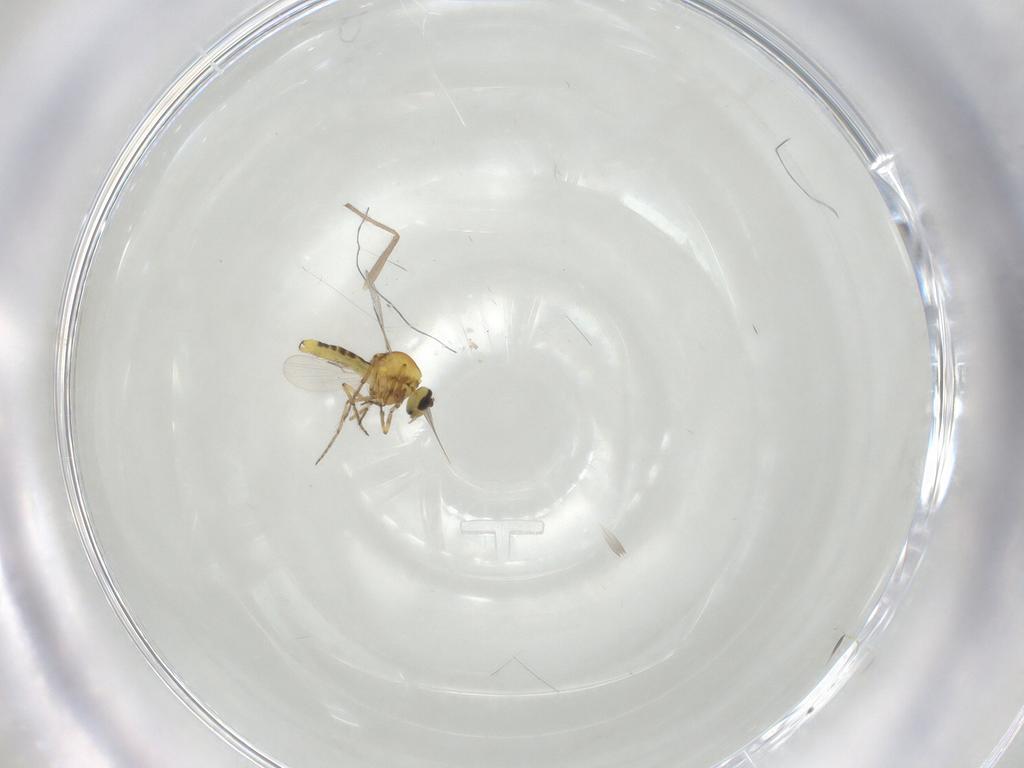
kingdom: Animalia
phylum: Arthropoda
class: Insecta
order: Diptera
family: Chironomidae
